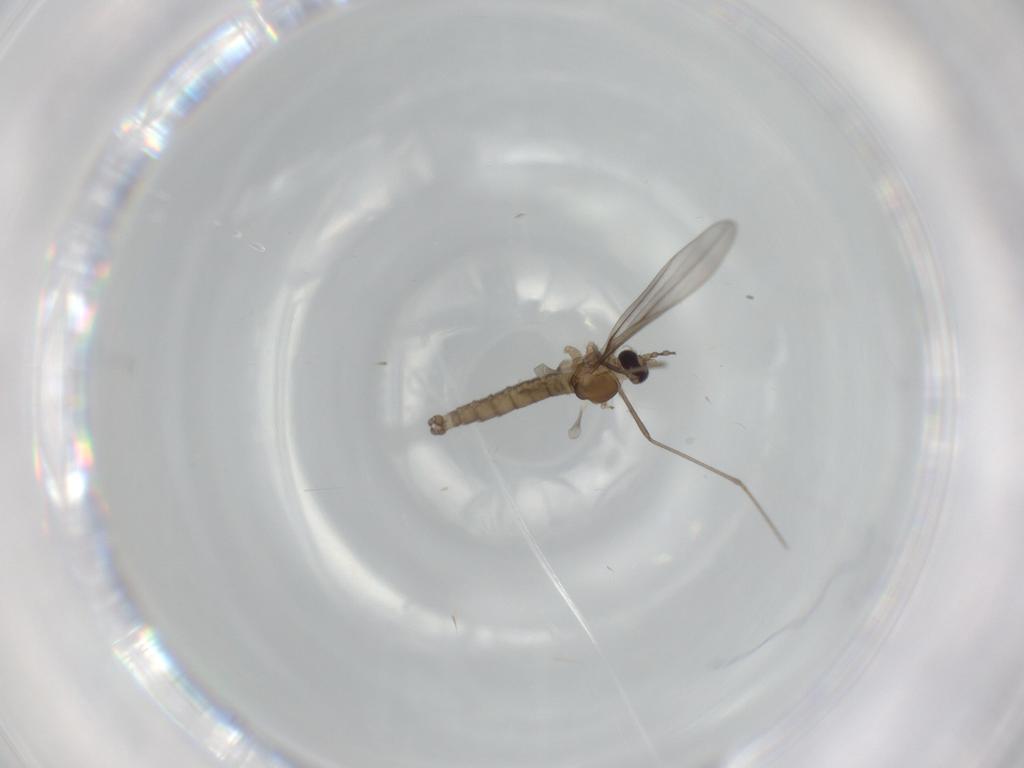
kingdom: Animalia
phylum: Arthropoda
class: Insecta
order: Diptera
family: Cecidomyiidae
